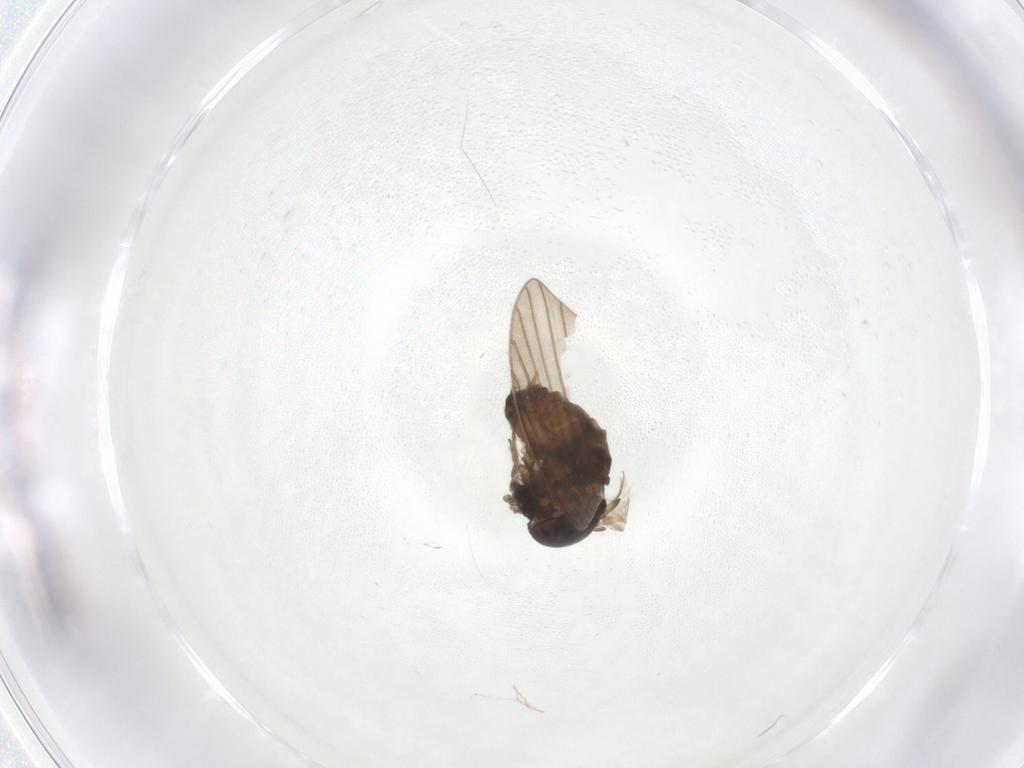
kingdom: Animalia
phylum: Arthropoda
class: Insecta
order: Diptera
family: Psychodidae
